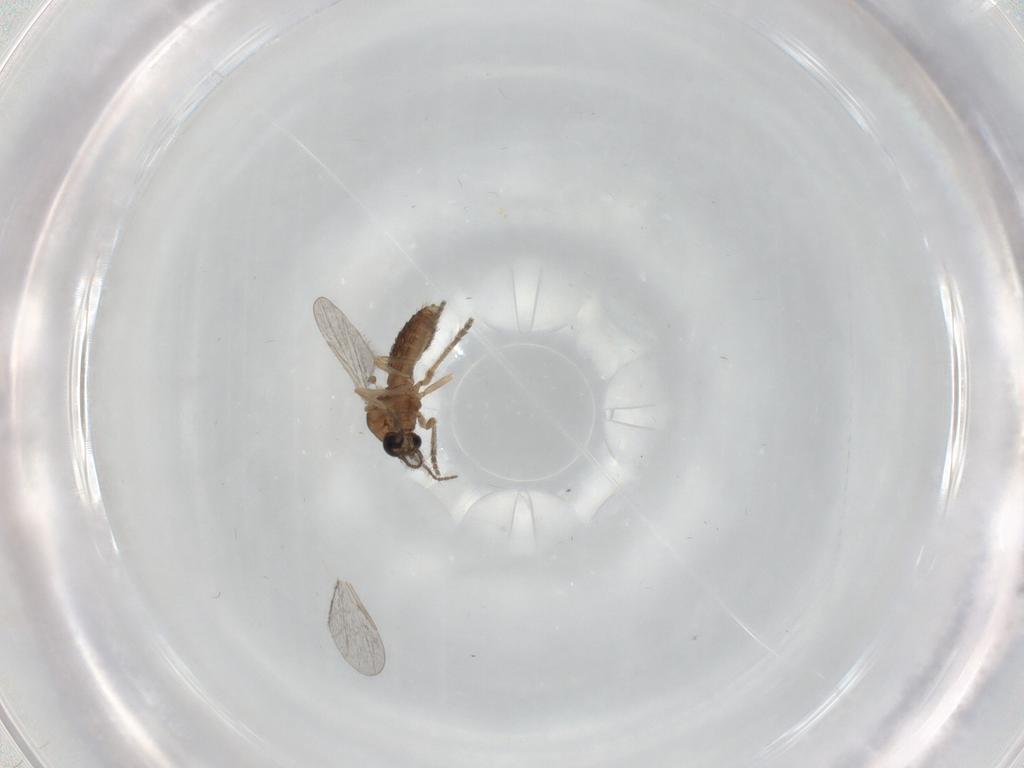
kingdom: Animalia
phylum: Arthropoda
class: Insecta
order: Diptera
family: Ceratopogonidae
